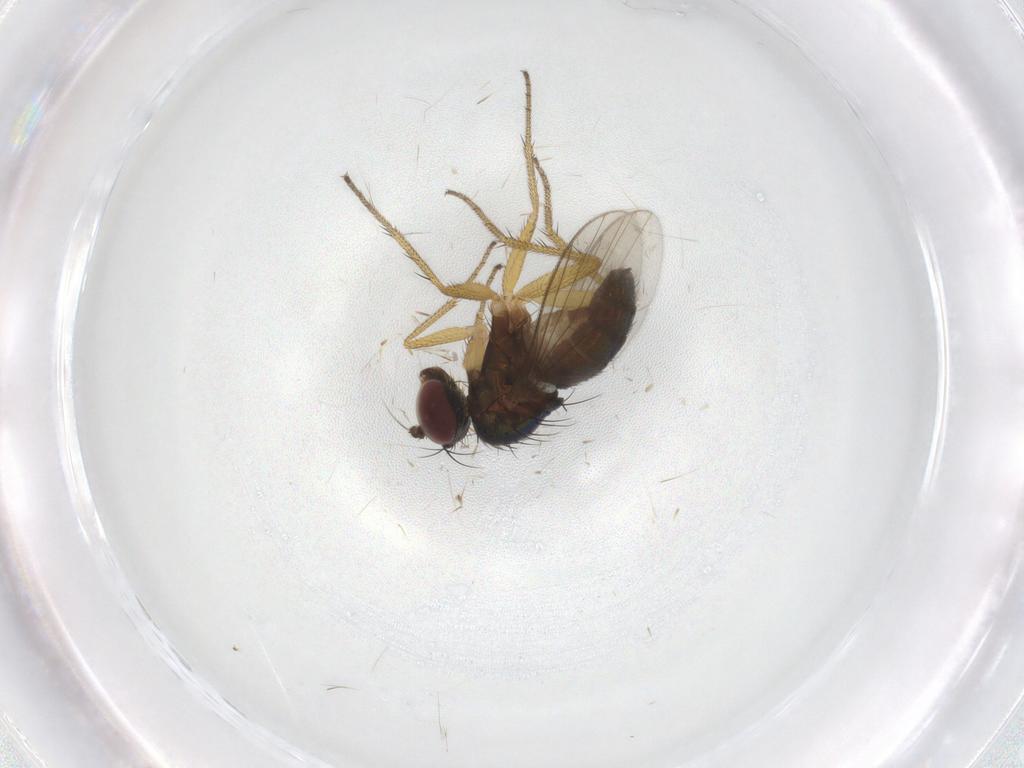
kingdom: Animalia
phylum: Arthropoda
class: Insecta
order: Diptera
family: Dolichopodidae
